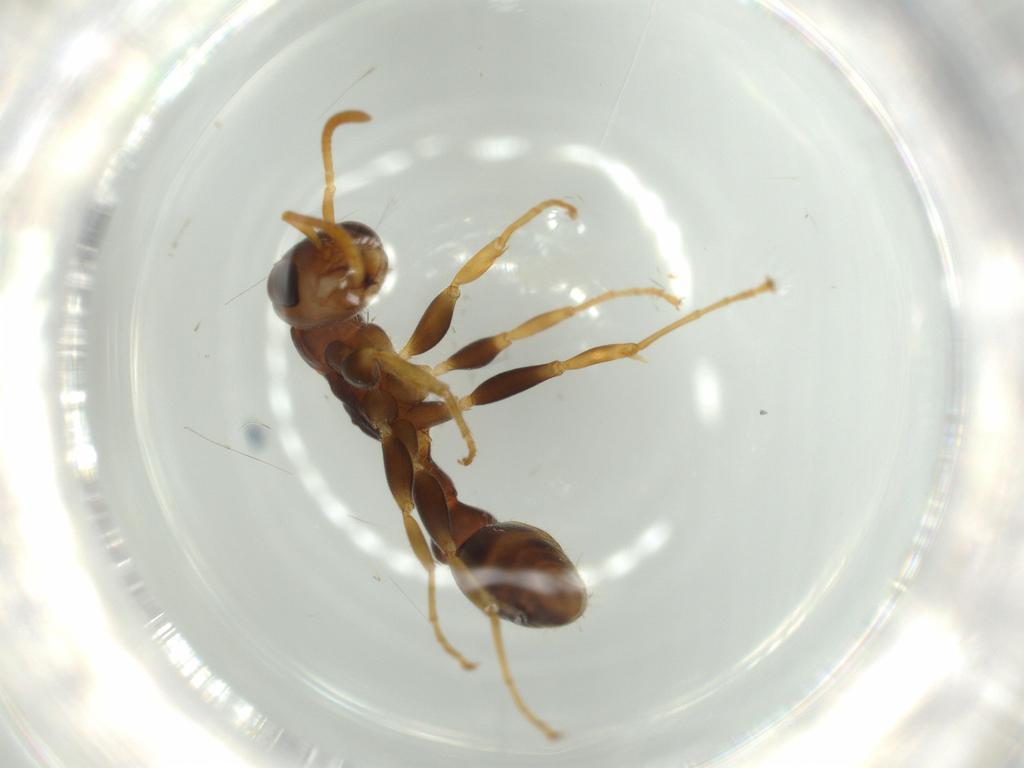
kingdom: Animalia
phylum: Arthropoda
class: Insecta
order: Hymenoptera
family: Formicidae
